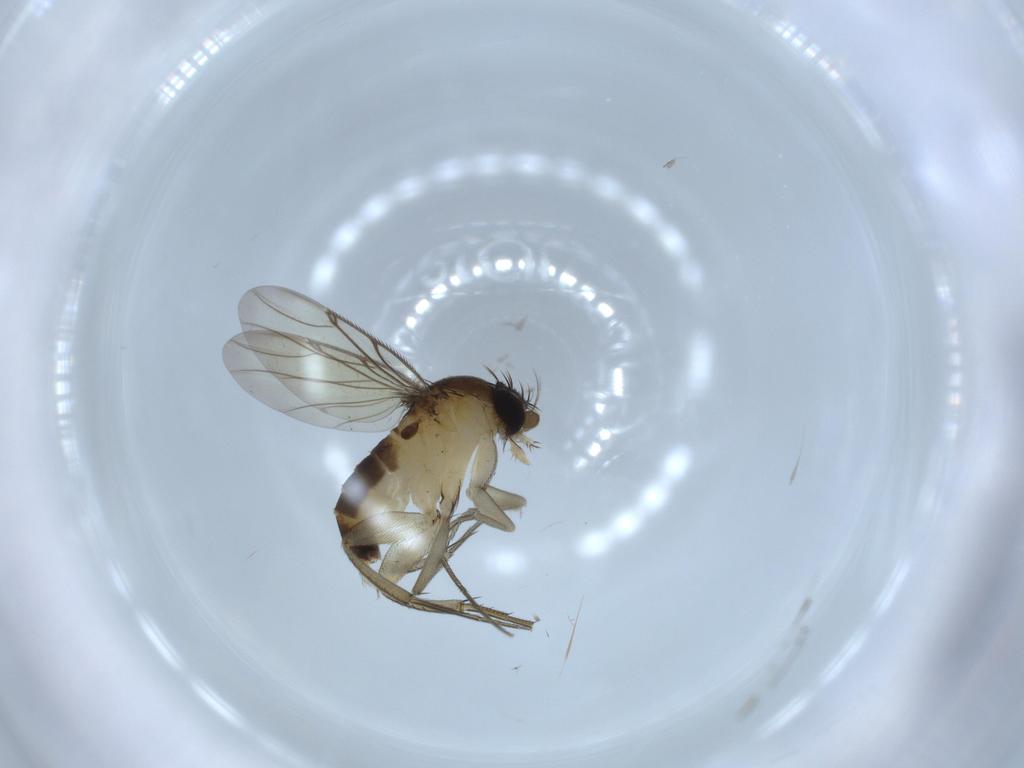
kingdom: Animalia
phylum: Arthropoda
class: Insecta
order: Diptera
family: Chironomidae
